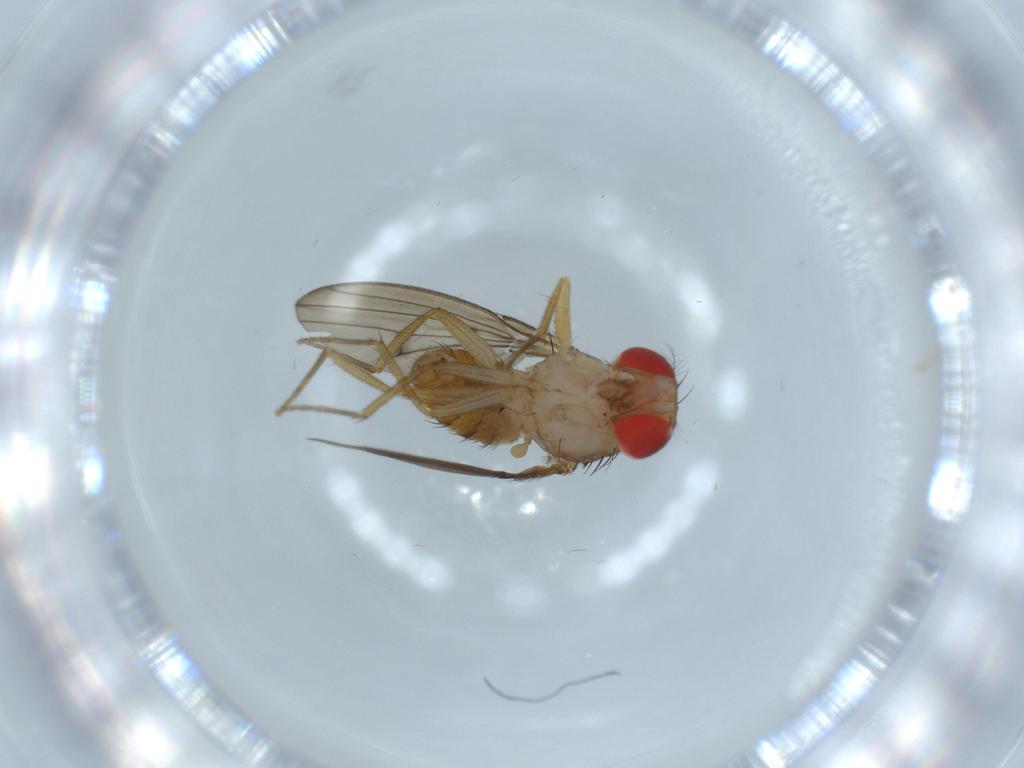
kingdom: Animalia
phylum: Arthropoda
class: Insecta
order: Diptera
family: Drosophilidae
